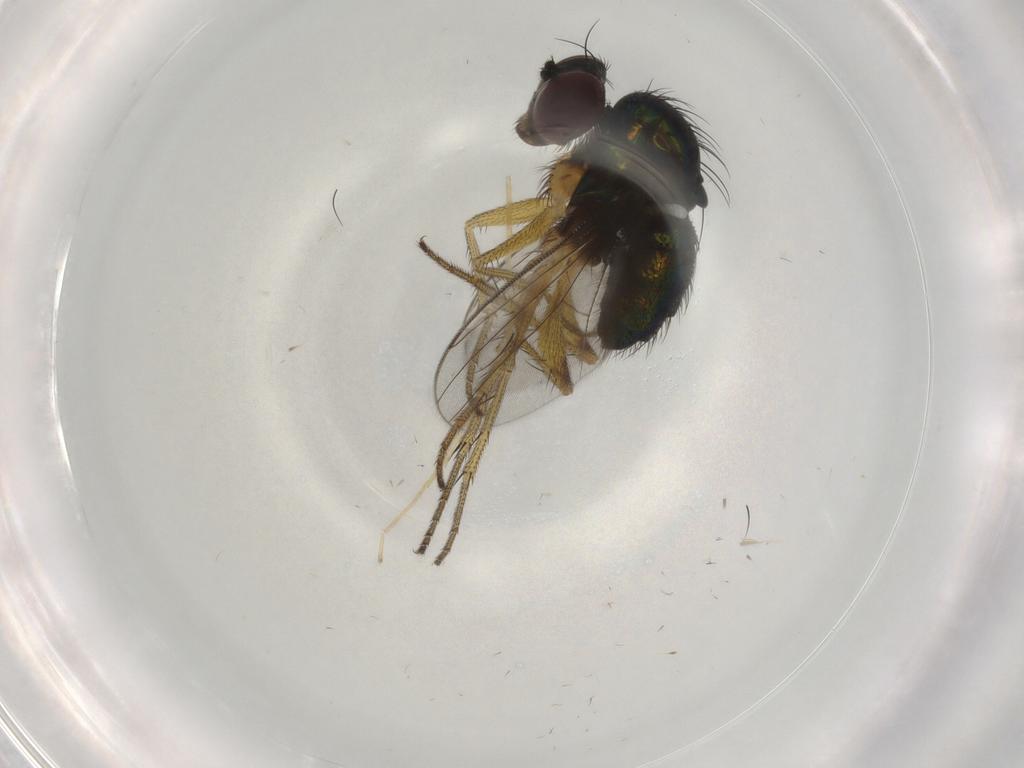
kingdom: Animalia
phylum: Arthropoda
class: Insecta
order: Diptera
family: Dolichopodidae
